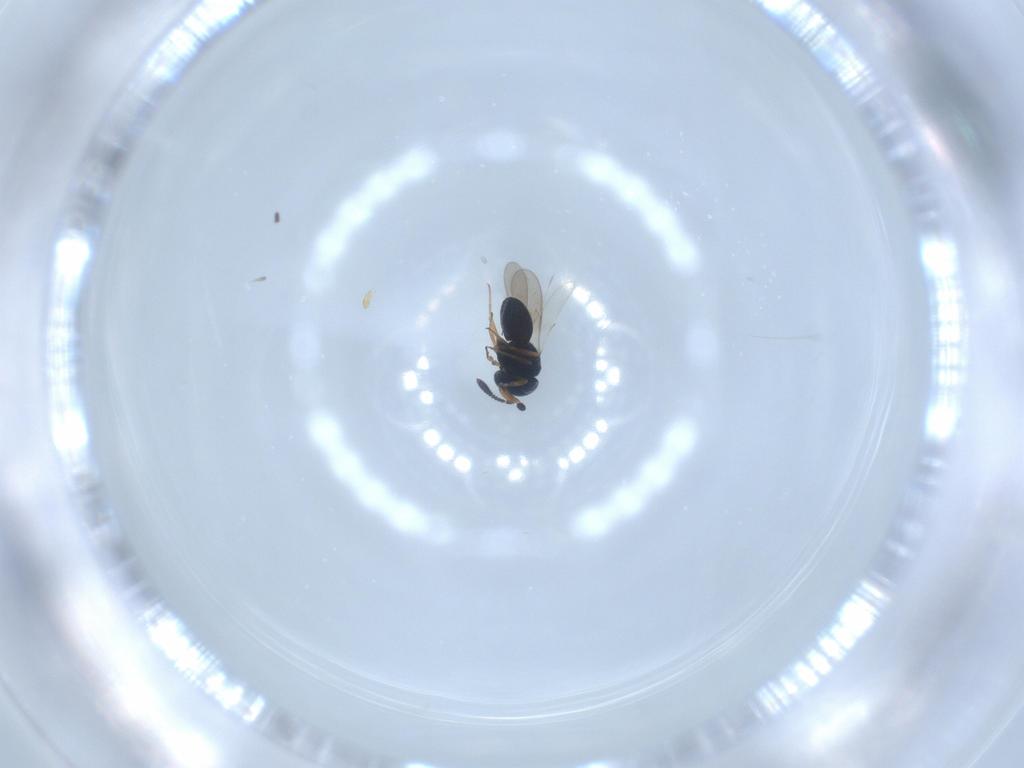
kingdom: Animalia
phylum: Arthropoda
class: Insecta
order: Hymenoptera
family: Scelionidae
